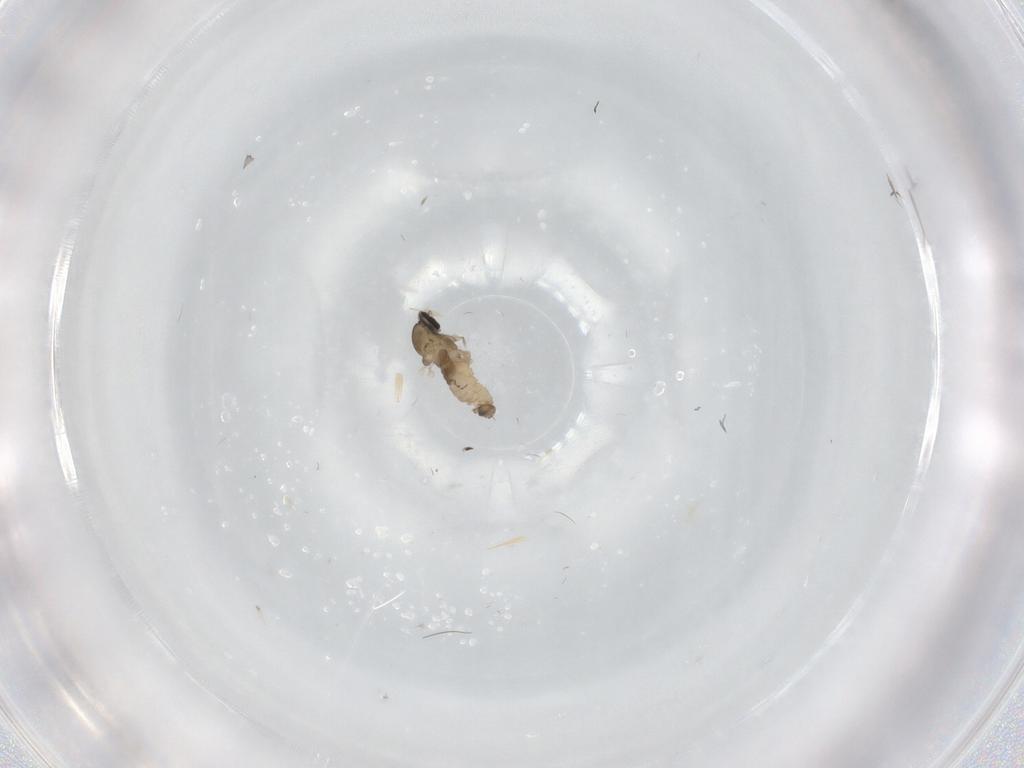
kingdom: Animalia
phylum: Arthropoda
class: Insecta
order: Diptera
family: Cecidomyiidae
